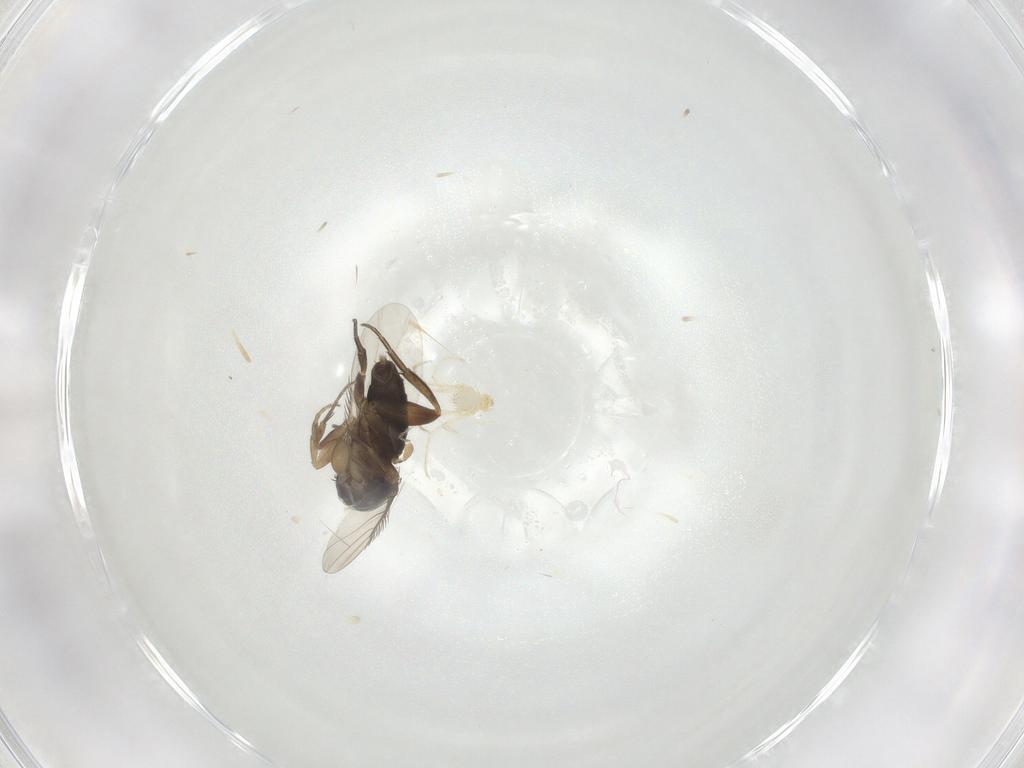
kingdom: Animalia
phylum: Arthropoda
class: Insecta
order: Diptera
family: Phoridae
